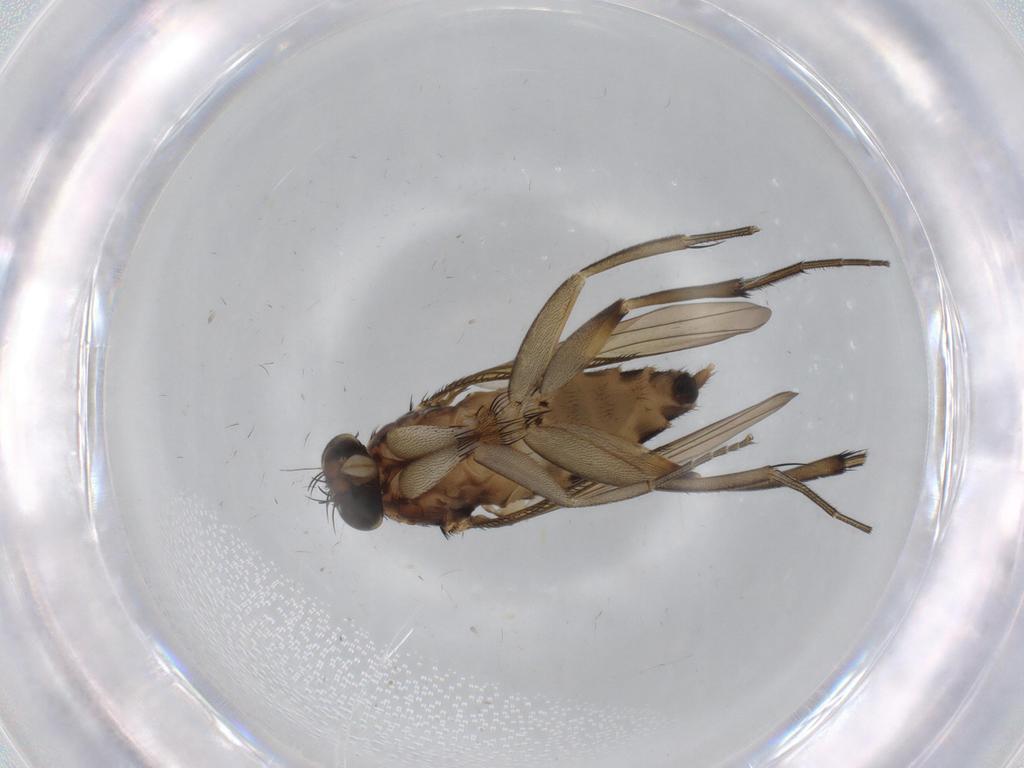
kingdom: Animalia
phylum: Arthropoda
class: Insecta
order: Diptera
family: Phoridae
